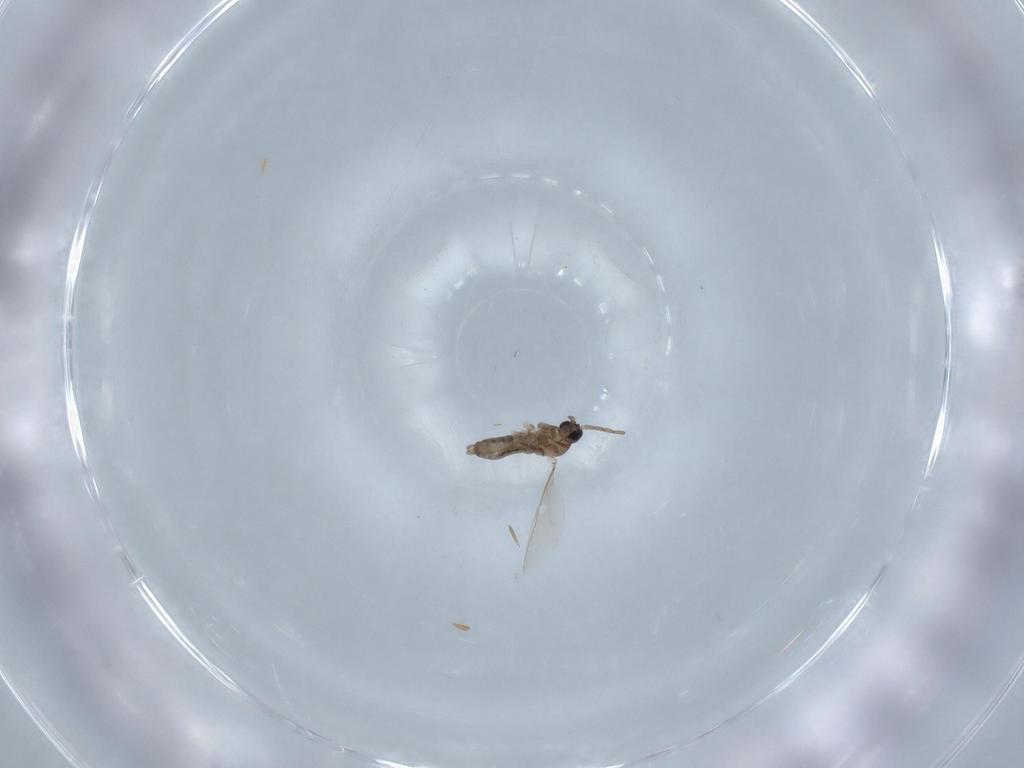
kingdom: Animalia
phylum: Arthropoda
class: Insecta
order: Diptera
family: Cecidomyiidae
